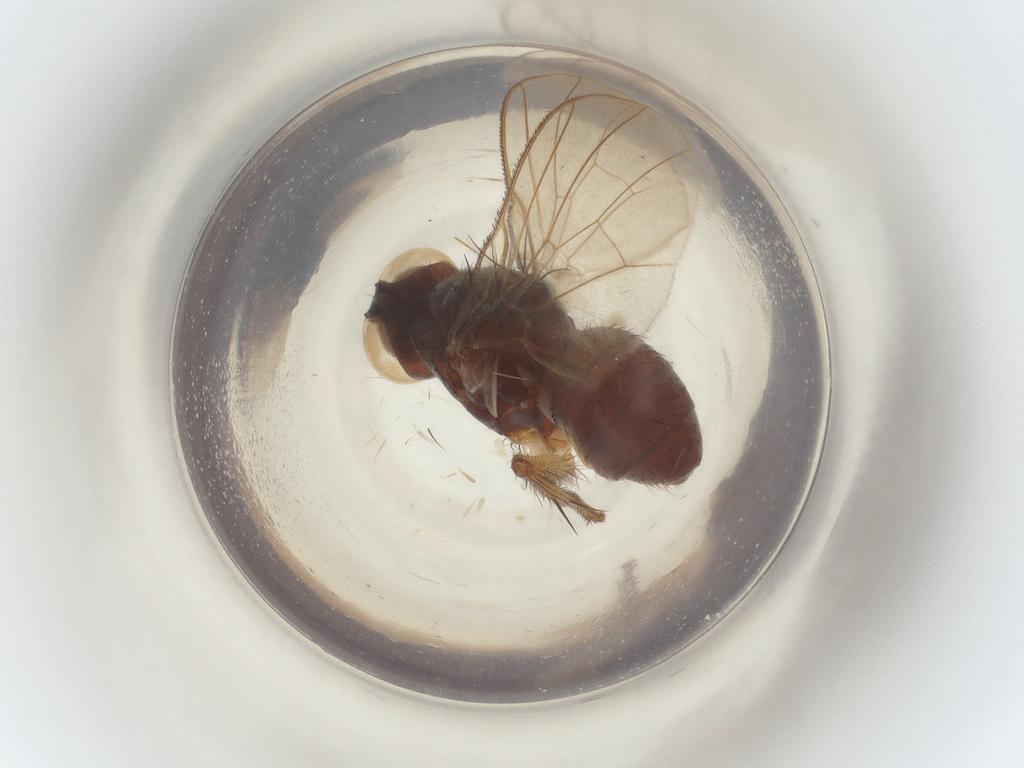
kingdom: Animalia
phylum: Arthropoda
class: Insecta
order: Diptera
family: Muscidae
